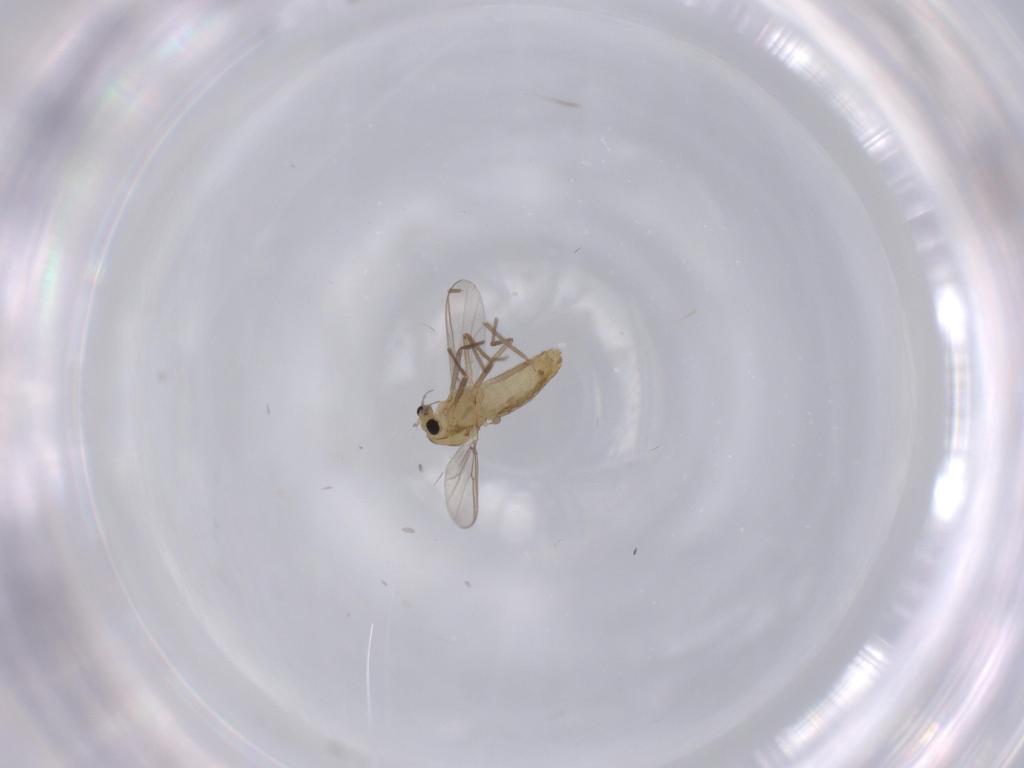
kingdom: Animalia
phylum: Arthropoda
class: Insecta
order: Diptera
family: Chironomidae
